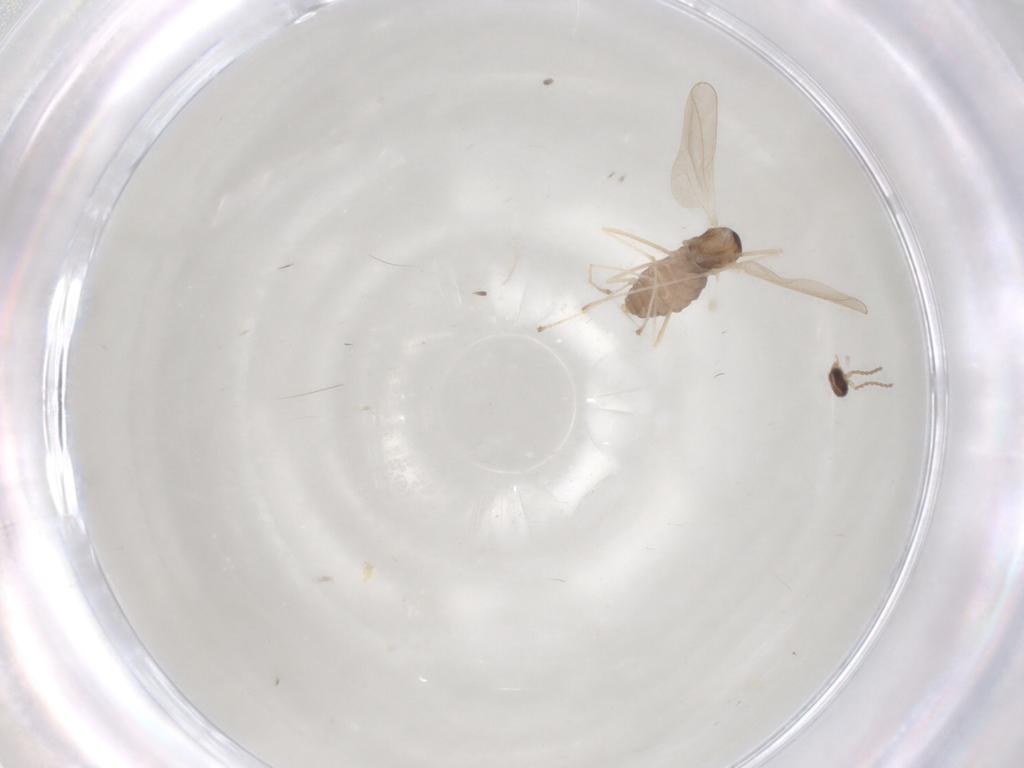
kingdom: Animalia
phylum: Arthropoda
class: Insecta
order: Diptera
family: Cecidomyiidae
